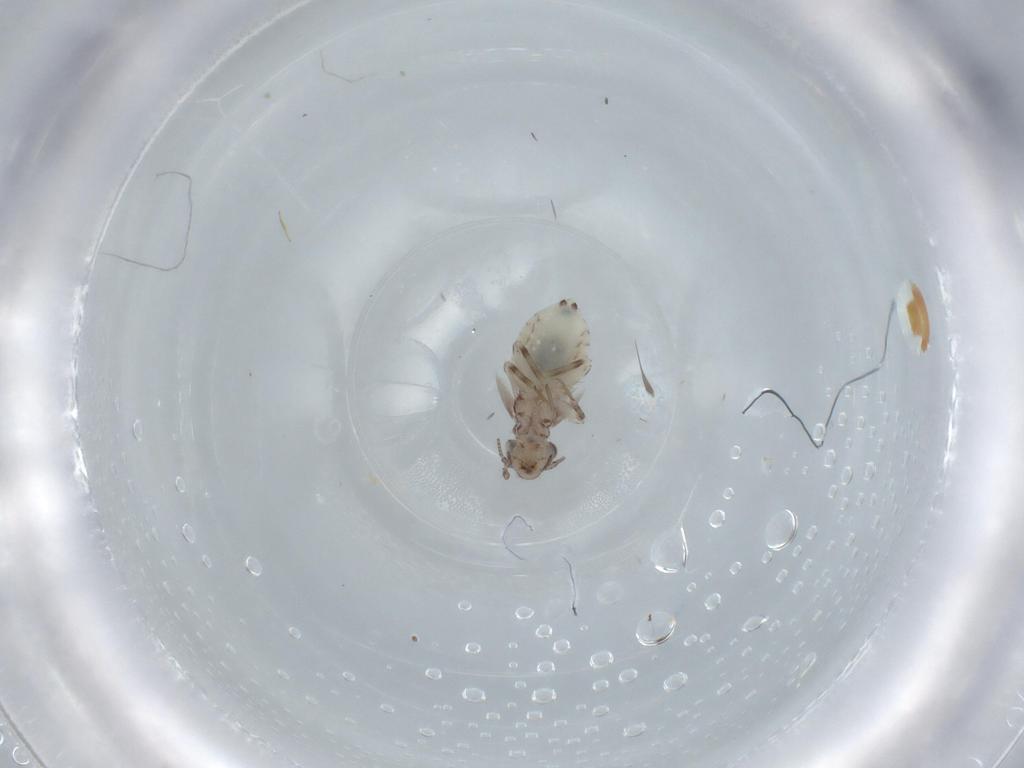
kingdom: Animalia
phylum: Arthropoda
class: Insecta
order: Psocodea
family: Lepidopsocidae
